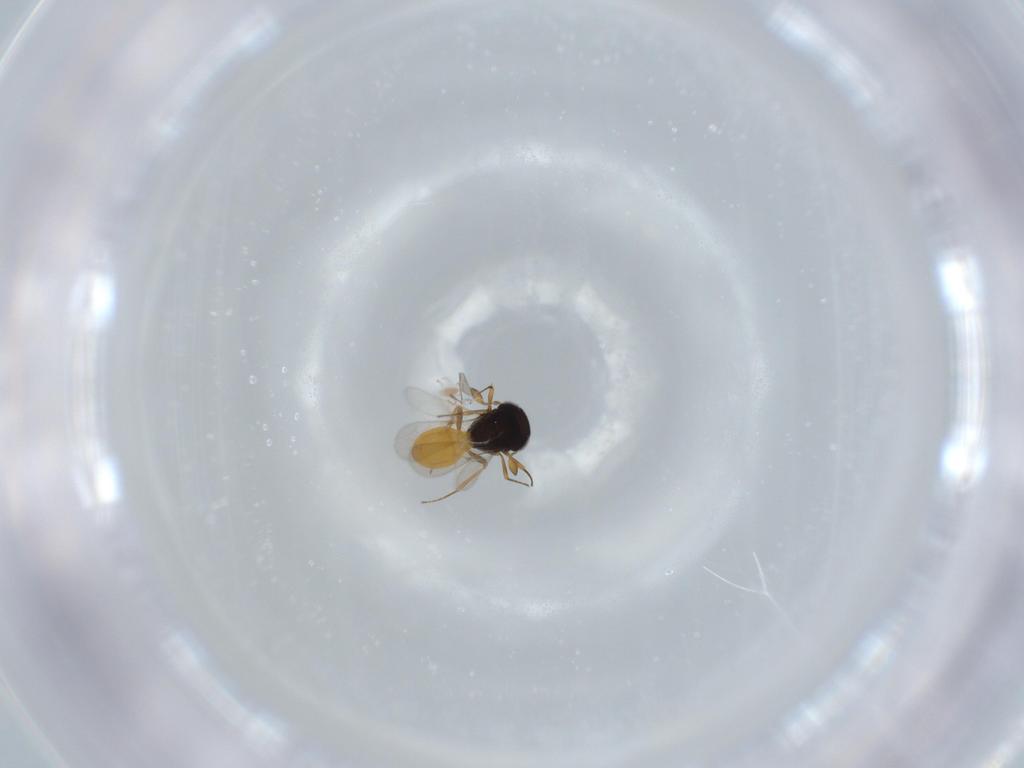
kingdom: Animalia
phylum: Arthropoda
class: Insecta
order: Hymenoptera
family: Scelionidae
